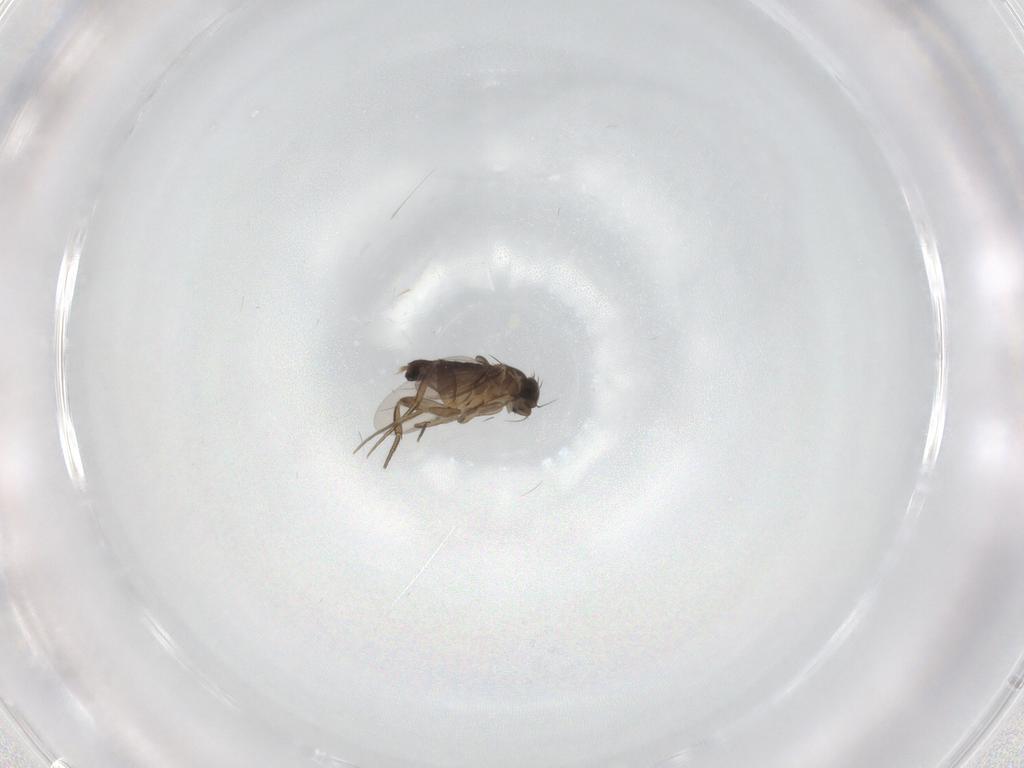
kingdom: Animalia
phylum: Arthropoda
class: Insecta
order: Diptera
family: Phoridae
